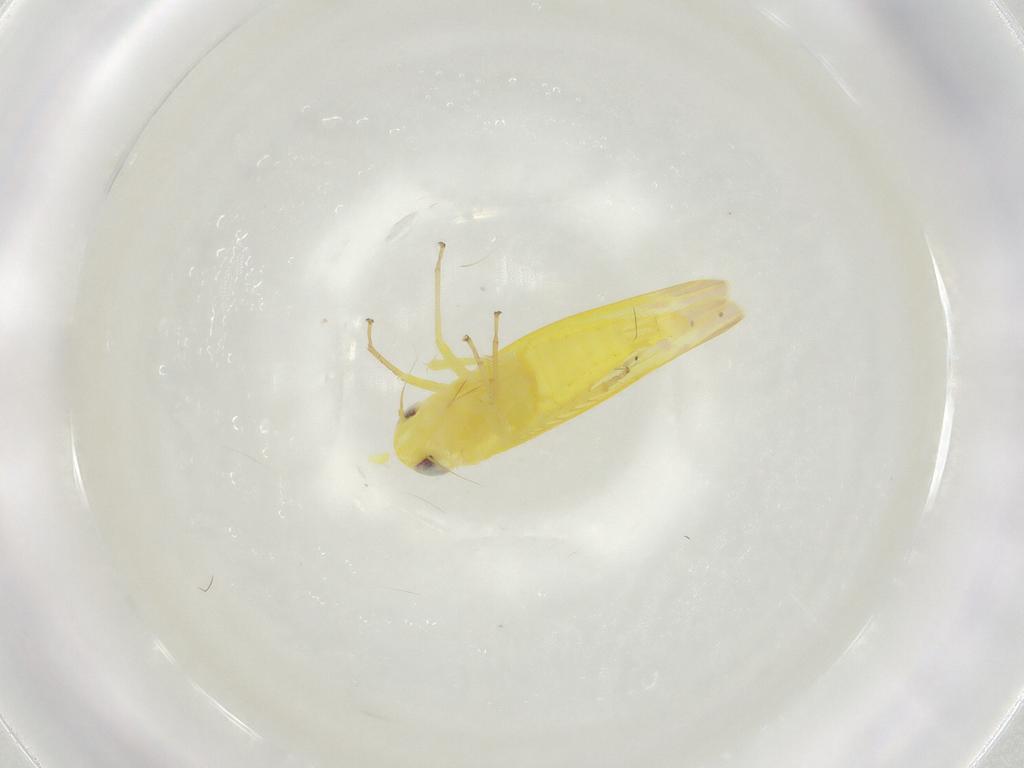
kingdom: Animalia
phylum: Arthropoda
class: Insecta
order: Hemiptera
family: Cicadellidae
